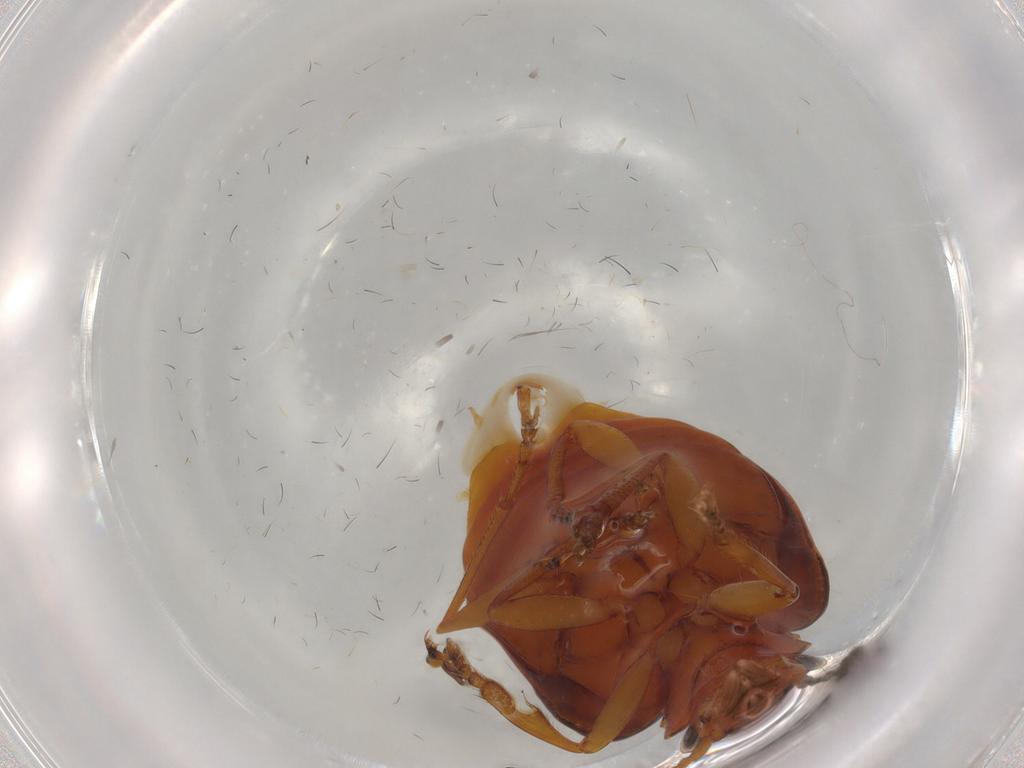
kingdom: Animalia
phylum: Arthropoda
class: Insecta
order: Coleoptera
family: Carabidae
